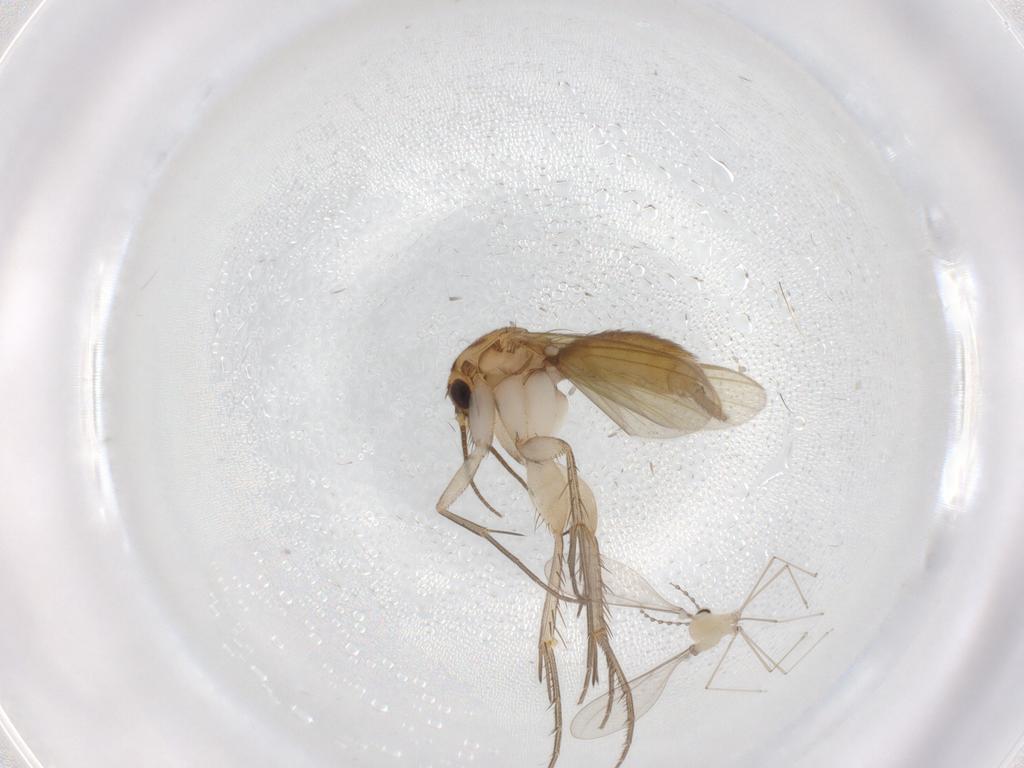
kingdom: Animalia
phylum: Arthropoda
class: Insecta
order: Diptera
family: Mycetophilidae
